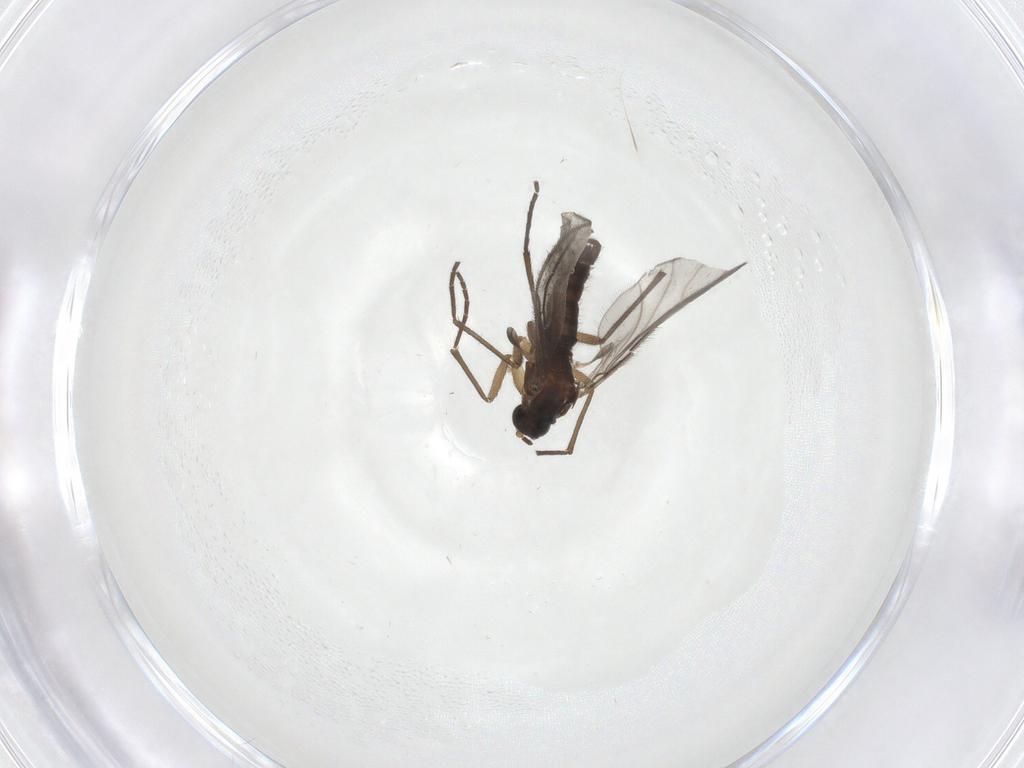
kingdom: Animalia
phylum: Arthropoda
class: Insecta
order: Diptera
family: Sciaridae
